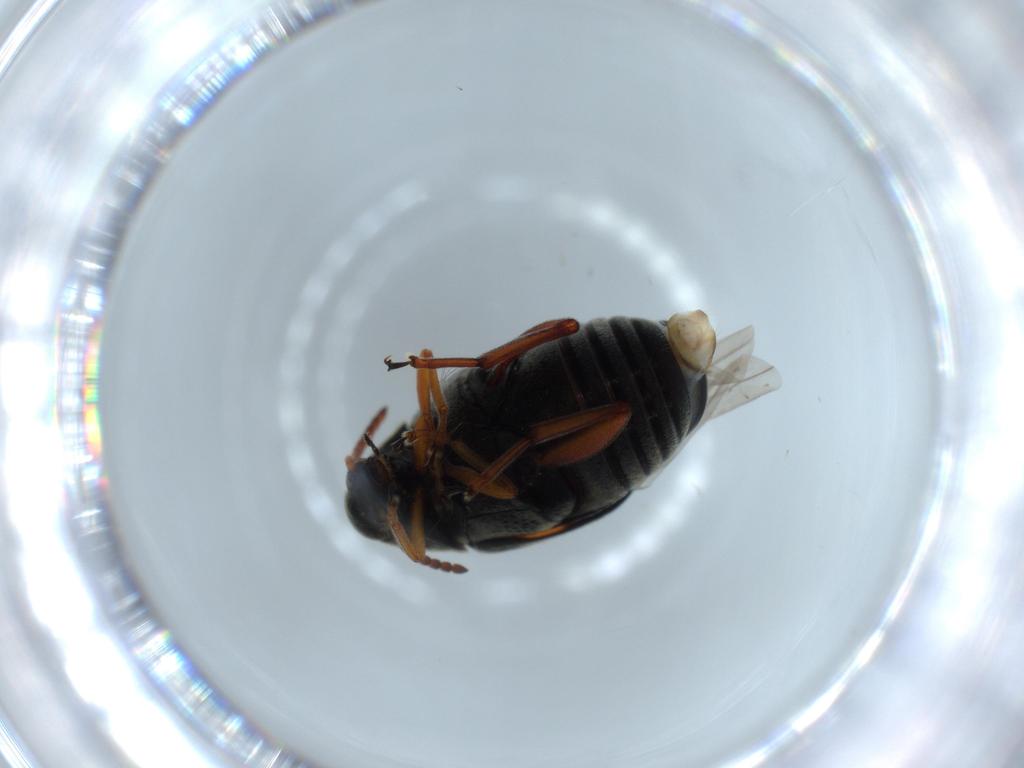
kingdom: Animalia
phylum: Arthropoda
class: Insecta
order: Coleoptera
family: Chrysomelidae
